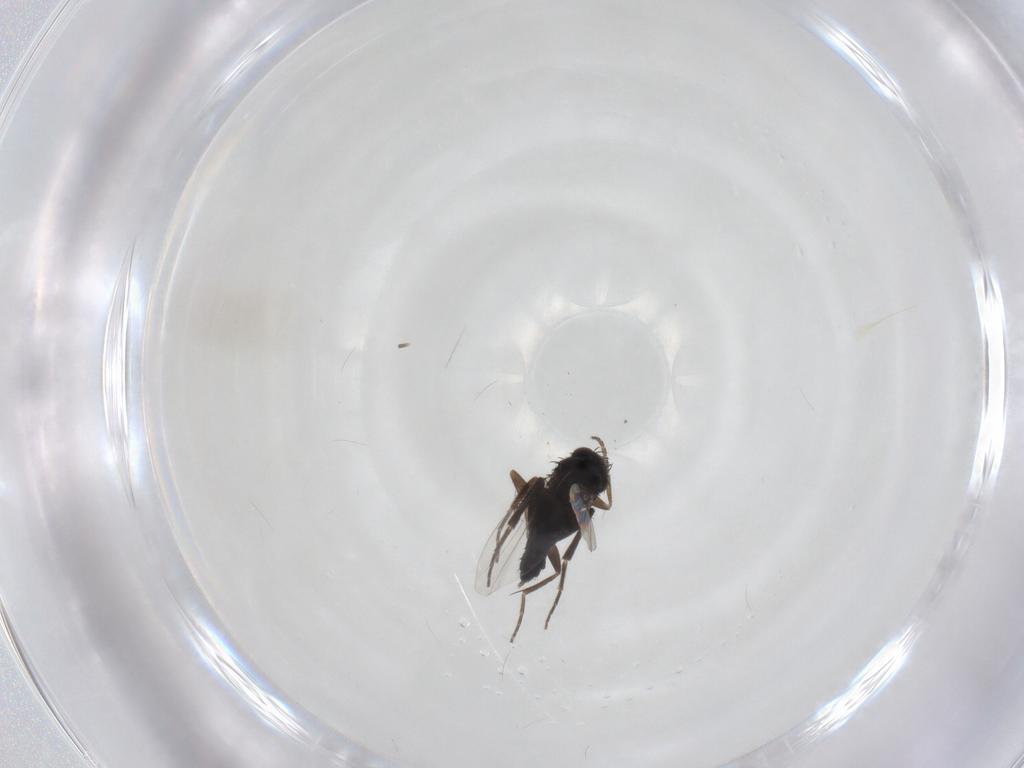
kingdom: Animalia
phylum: Arthropoda
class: Insecta
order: Diptera
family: Phoridae
